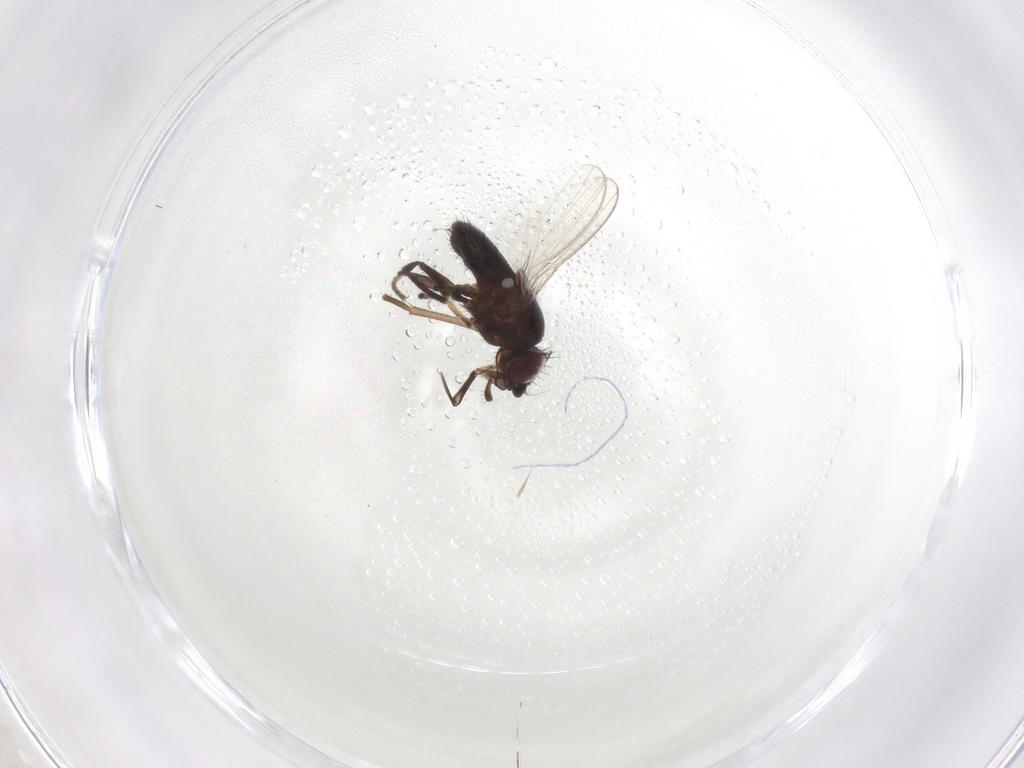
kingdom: Animalia
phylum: Arthropoda
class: Insecta
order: Diptera
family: Milichiidae
